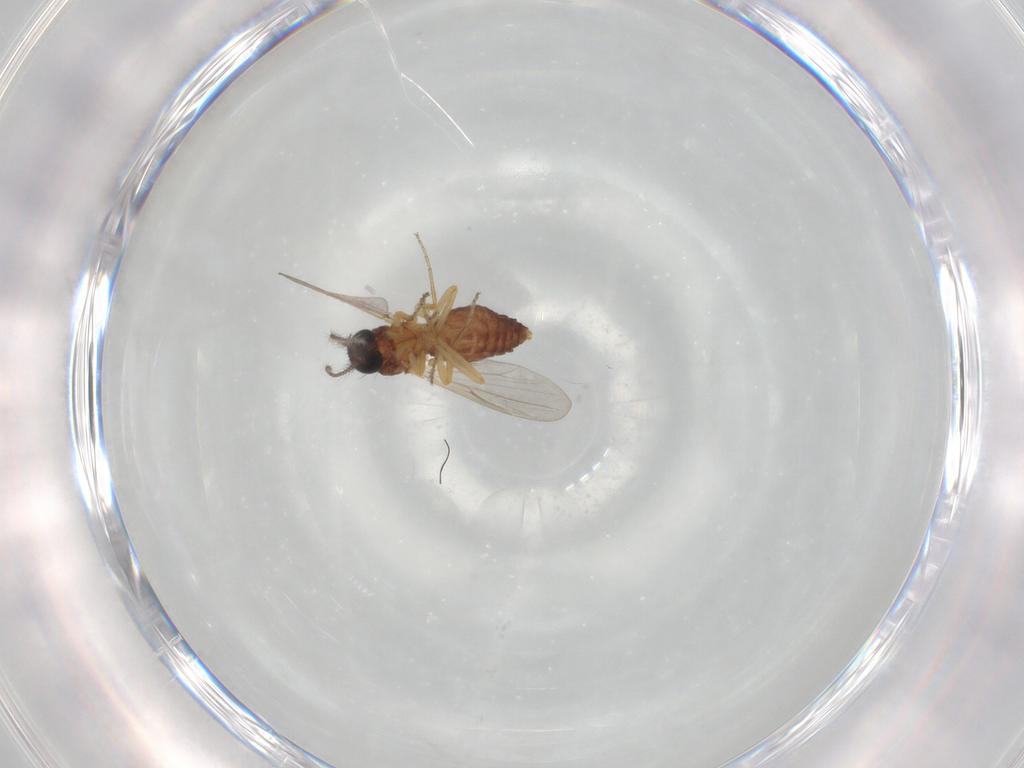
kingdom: Animalia
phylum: Arthropoda
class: Insecta
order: Diptera
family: Ceratopogonidae
